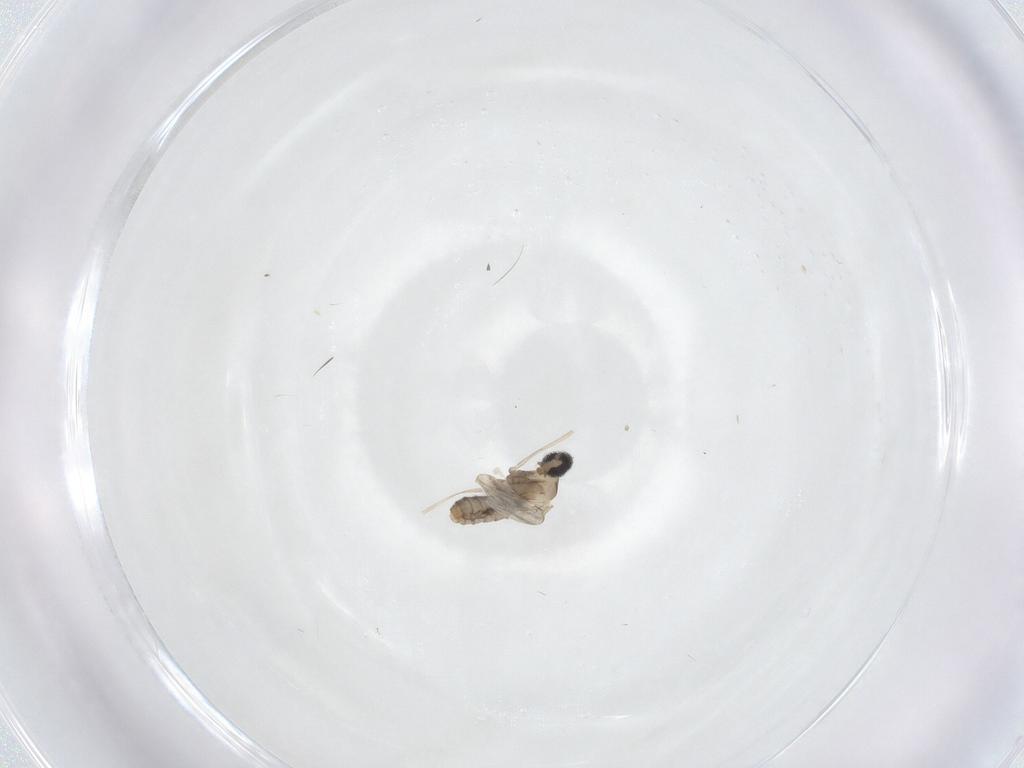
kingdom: Animalia
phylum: Arthropoda
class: Insecta
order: Diptera
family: Cecidomyiidae
